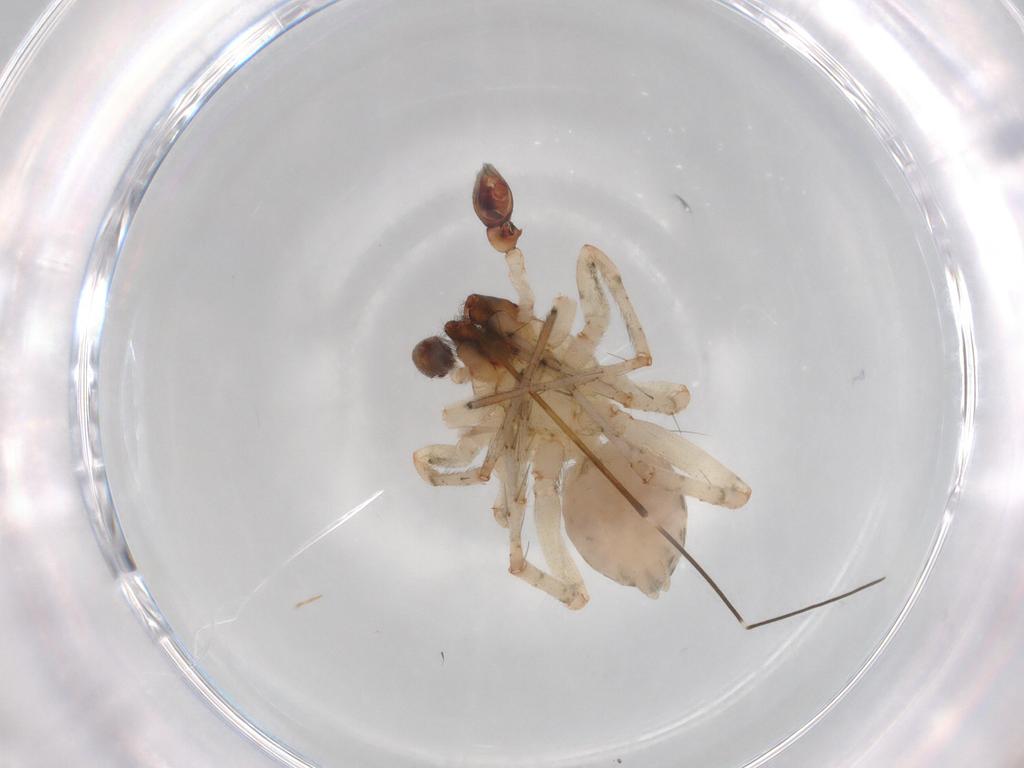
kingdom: Animalia
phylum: Arthropoda
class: Arachnida
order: Araneae
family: Anyphaenidae
